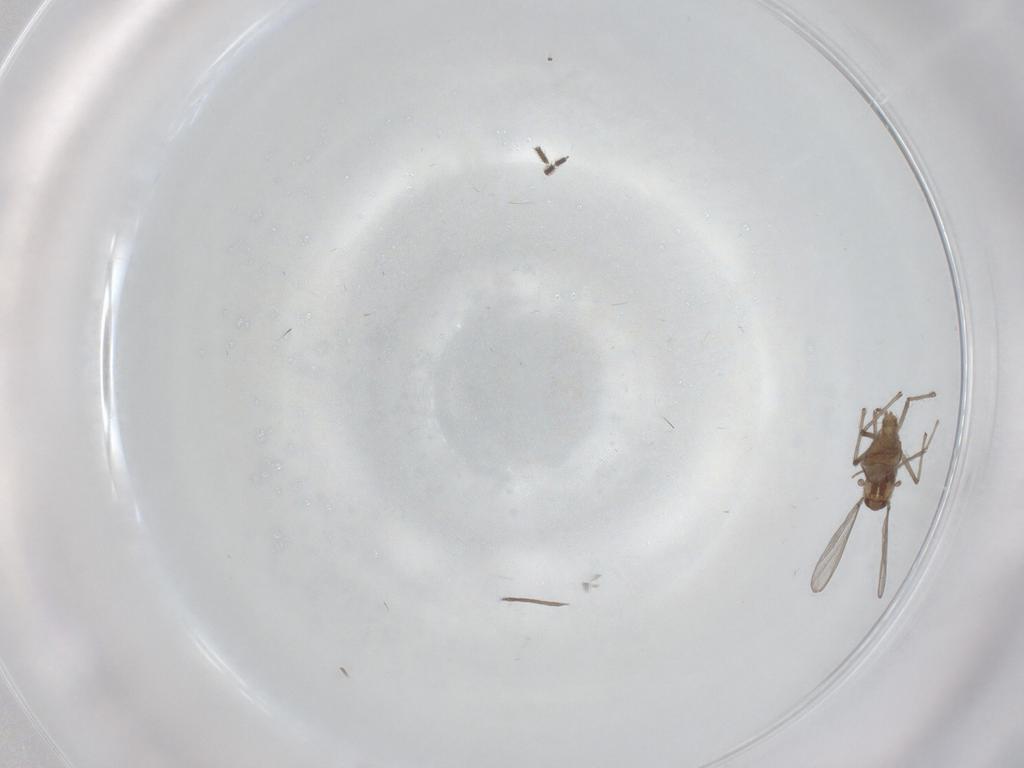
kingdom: Animalia
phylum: Arthropoda
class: Insecta
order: Diptera
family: Chironomidae
